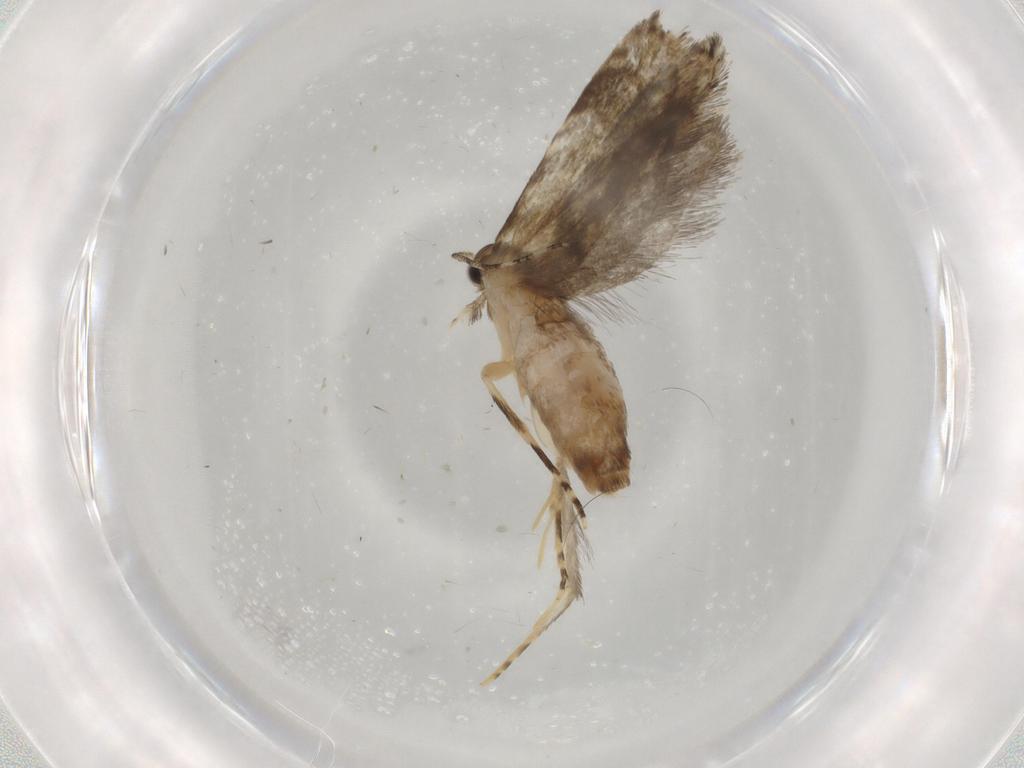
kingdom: Animalia
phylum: Arthropoda
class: Insecta
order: Lepidoptera
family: Tineidae
